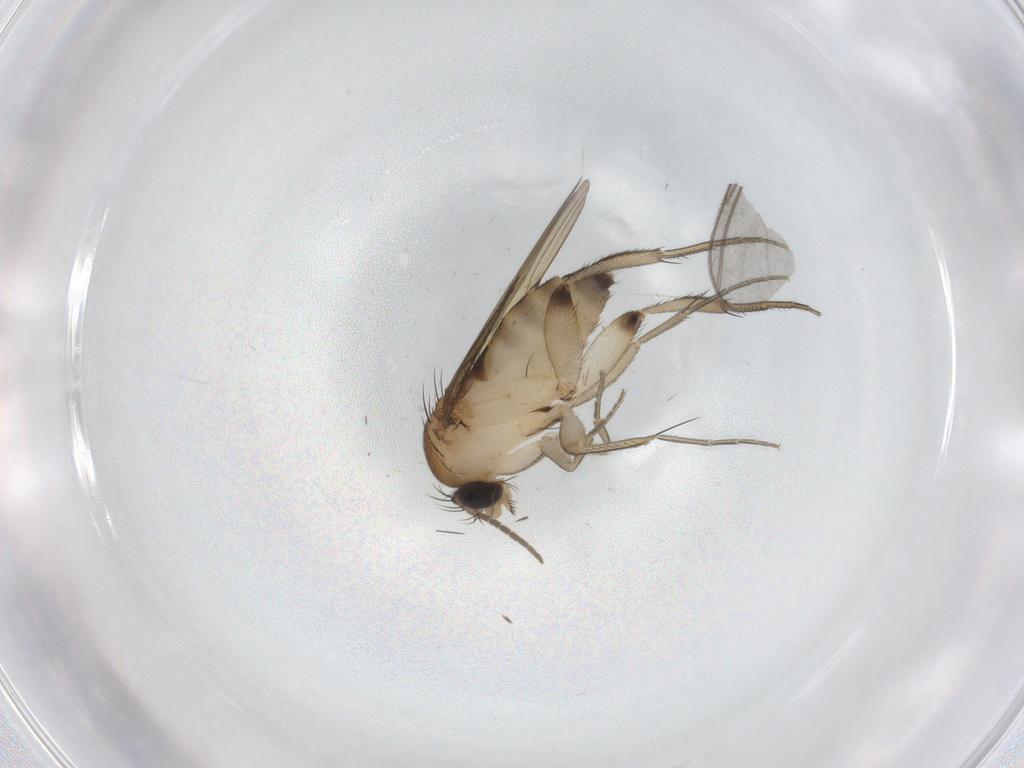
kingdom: Animalia
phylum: Arthropoda
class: Insecta
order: Diptera
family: Phoridae
